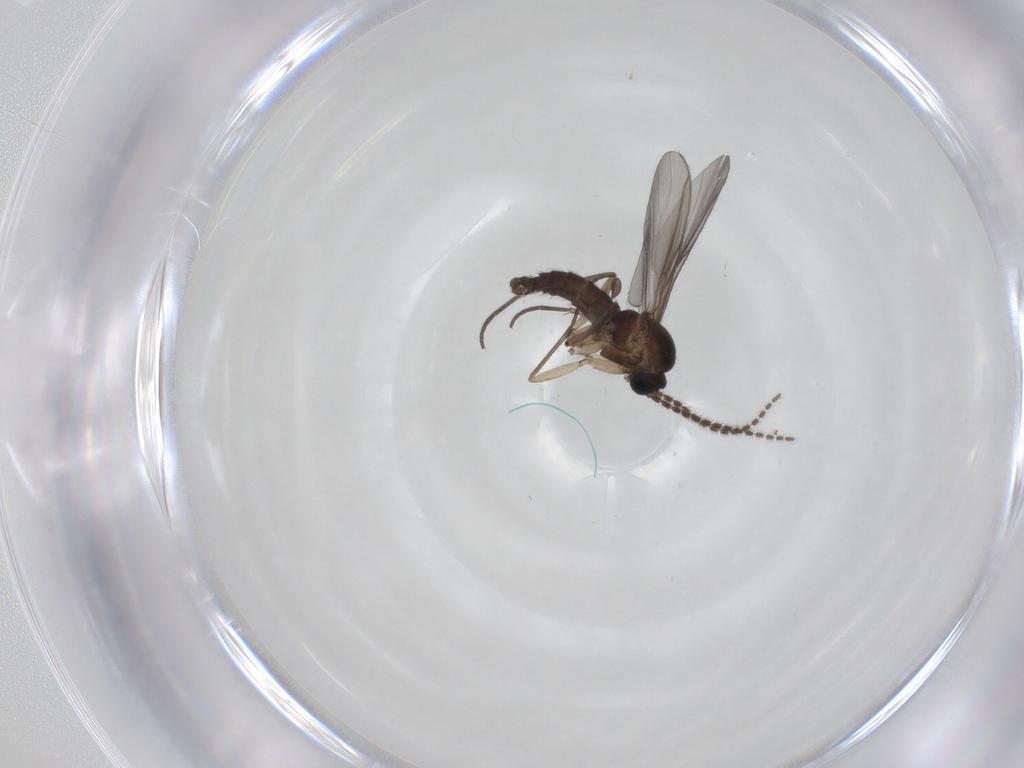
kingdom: Animalia
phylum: Arthropoda
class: Insecta
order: Diptera
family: Sciaridae
